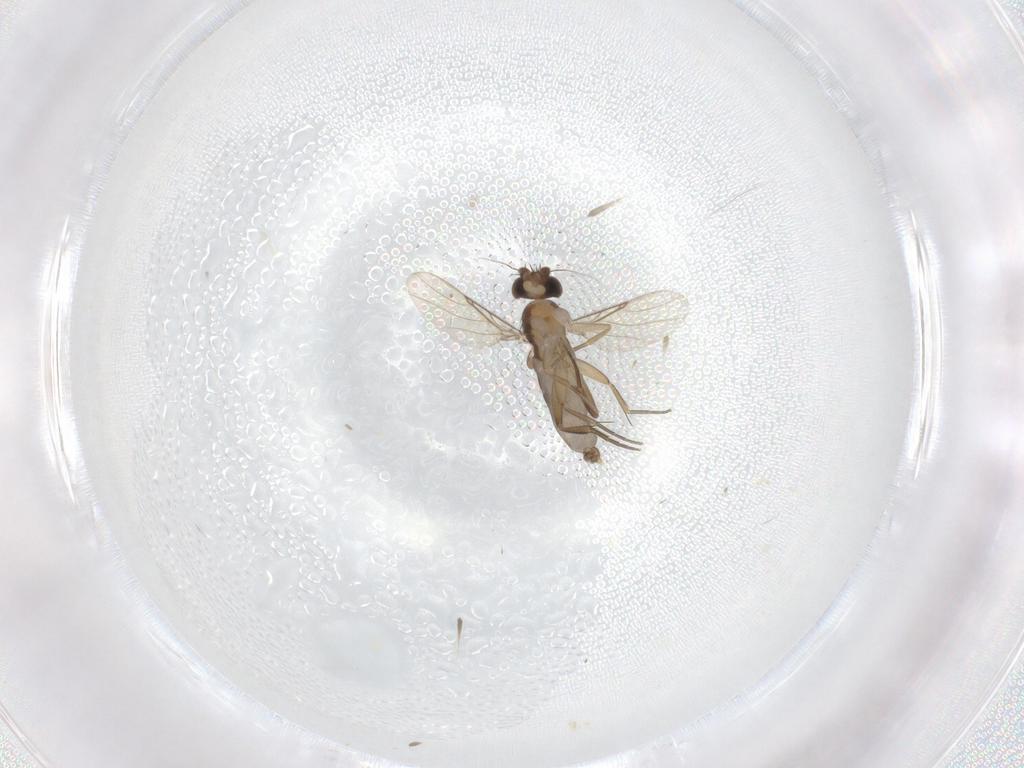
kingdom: Animalia
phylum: Arthropoda
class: Insecta
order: Diptera
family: Phoridae
